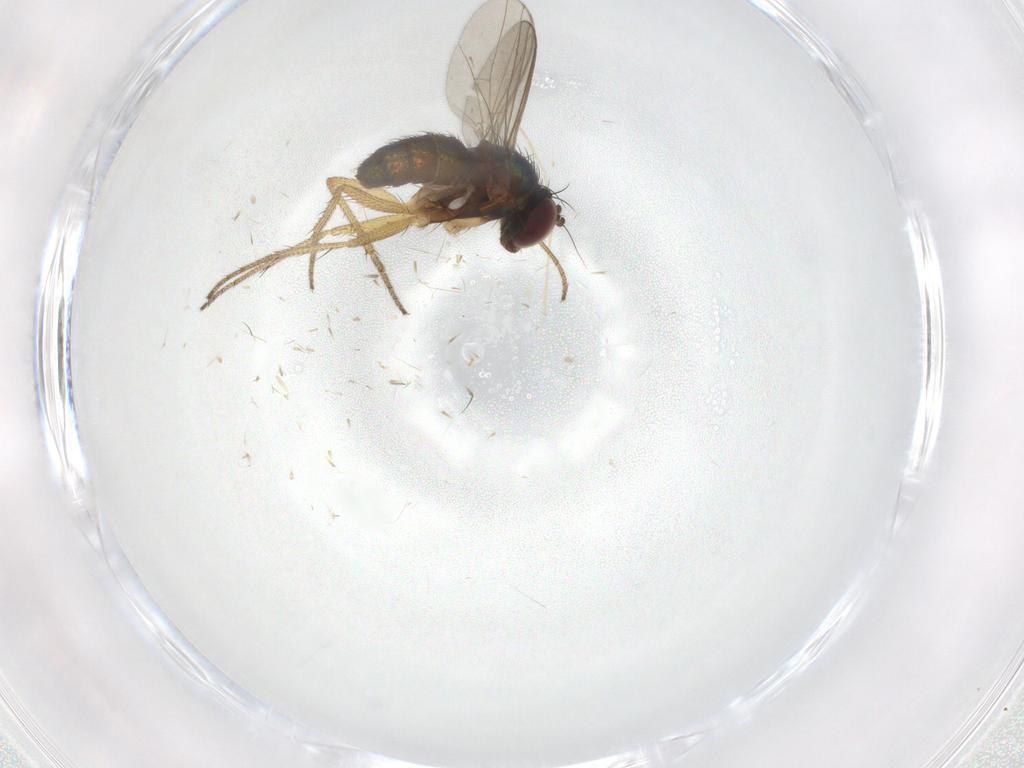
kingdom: Animalia
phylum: Arthropoda
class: Insecta
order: Diptera
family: Dolichopodidae
